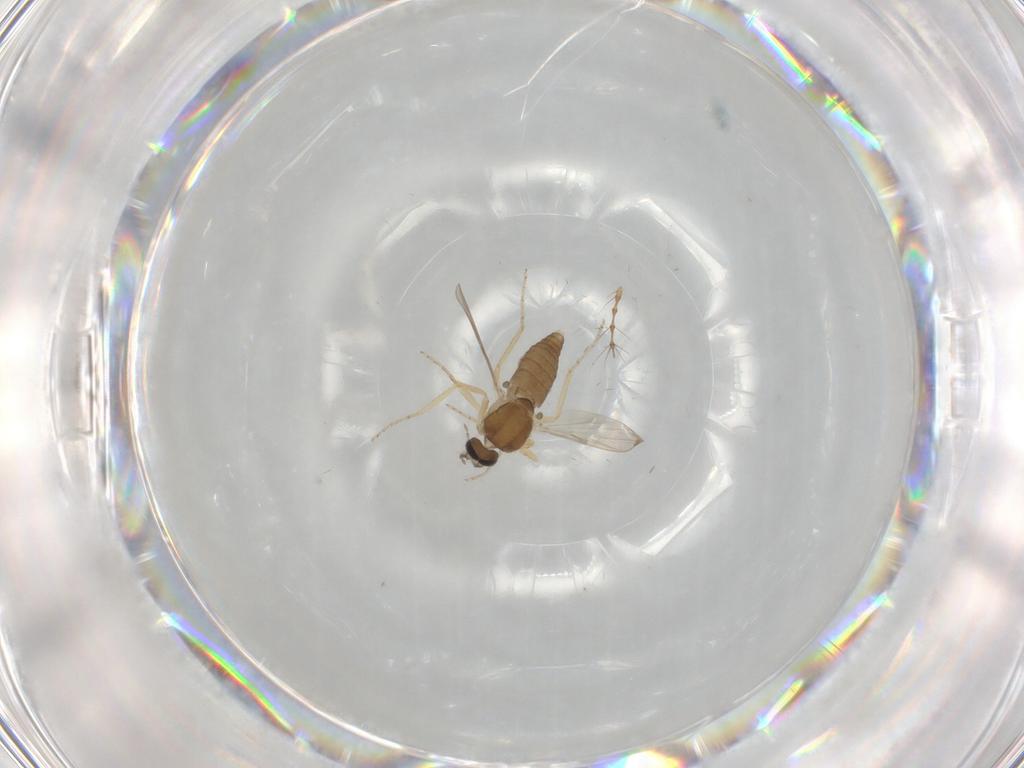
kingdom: Animalia
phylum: Arthropoda
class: Insecta
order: Diptera
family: Ceratopogonidae
